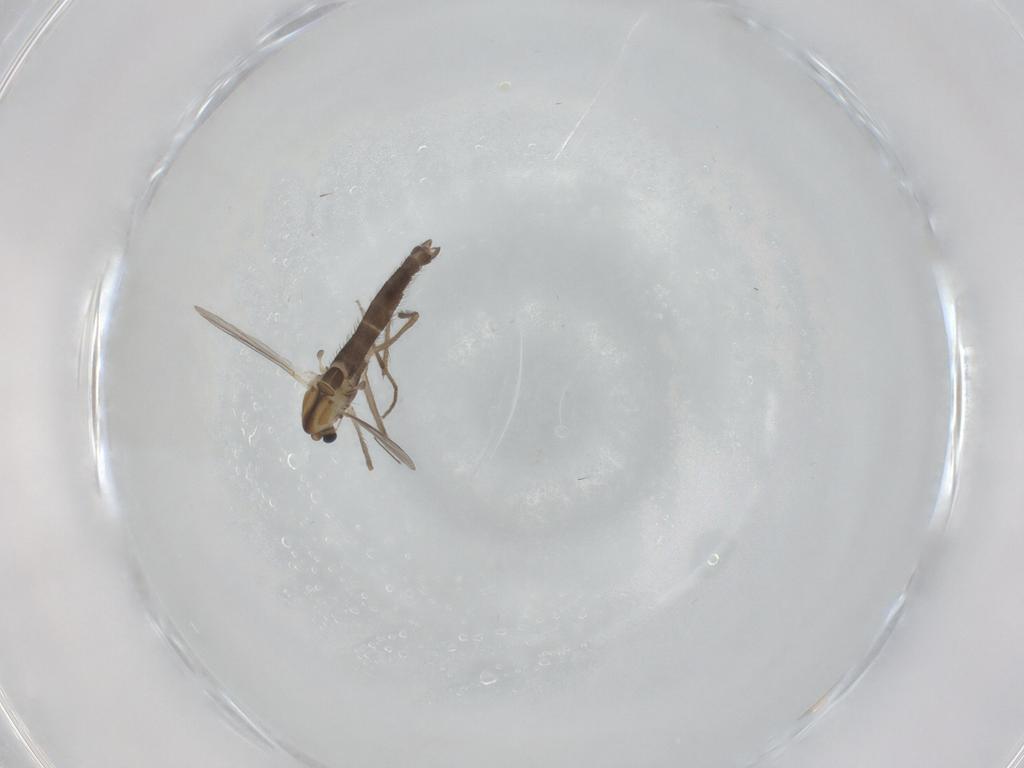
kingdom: Animalia
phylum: Arthropoda
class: Insecta
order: Diptera
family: Chironomidae
